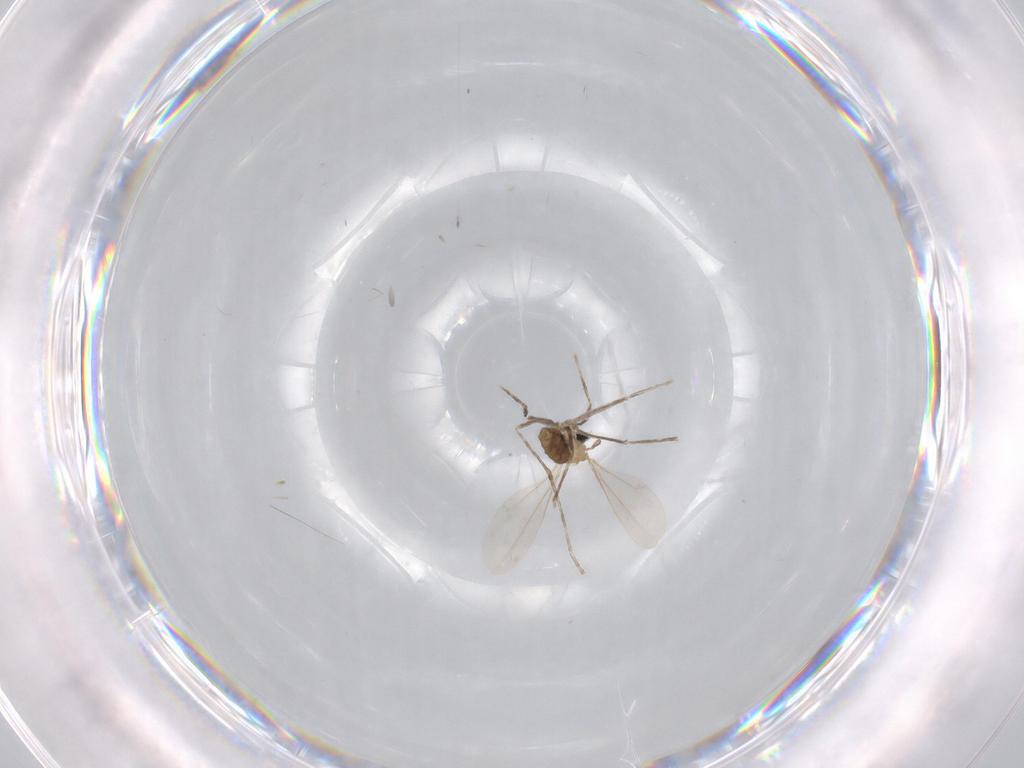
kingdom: Animalia
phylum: Arthropoda
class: Insecta
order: Diptera
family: Cecidomyiidae
